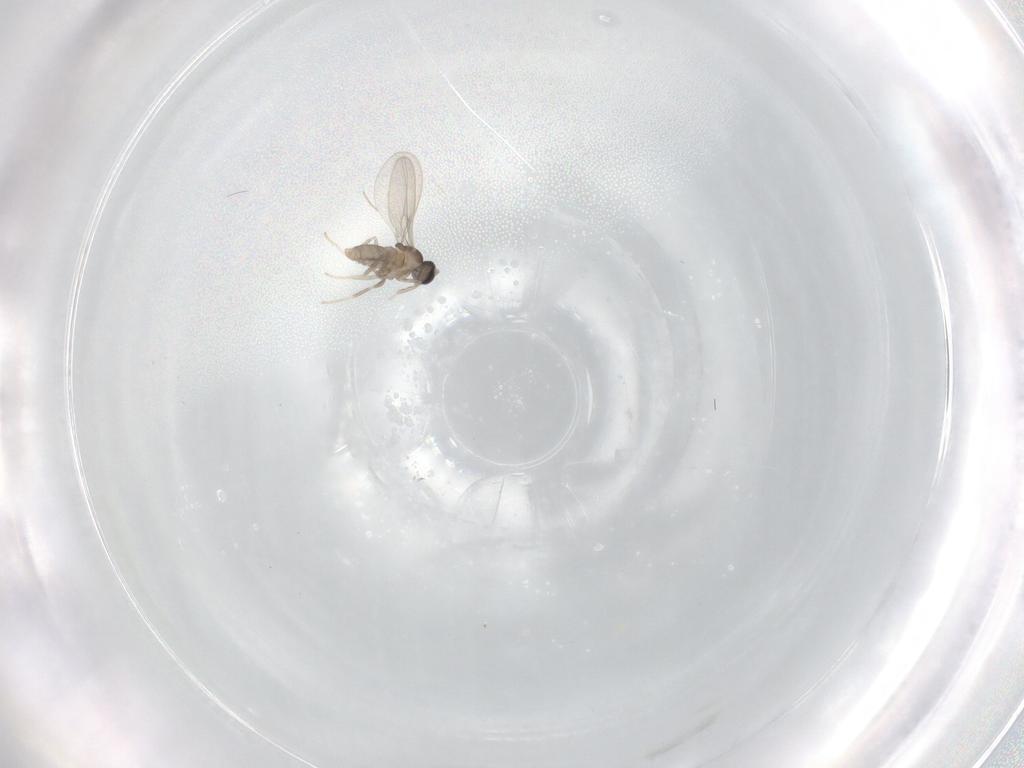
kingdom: Animalia
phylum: Arthropoda
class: Insecta
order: Diptera
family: Cecidomyiidae
